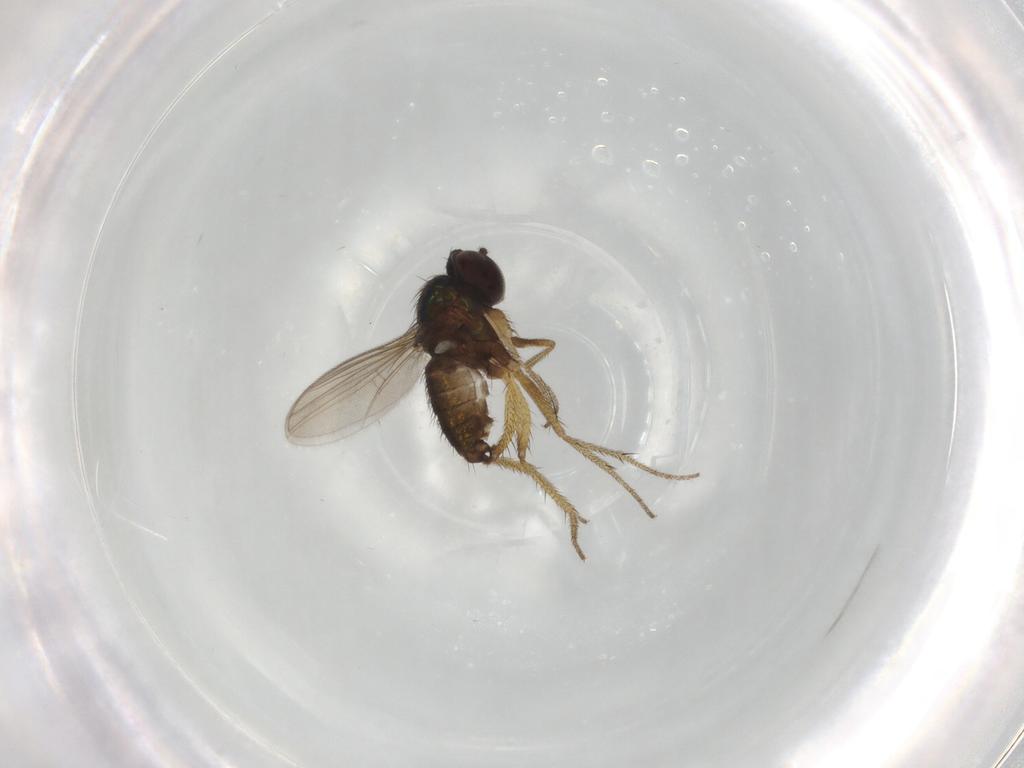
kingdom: Animalia
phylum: Arthropoda
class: Insecta
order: Diptera
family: Dolichopodidae
